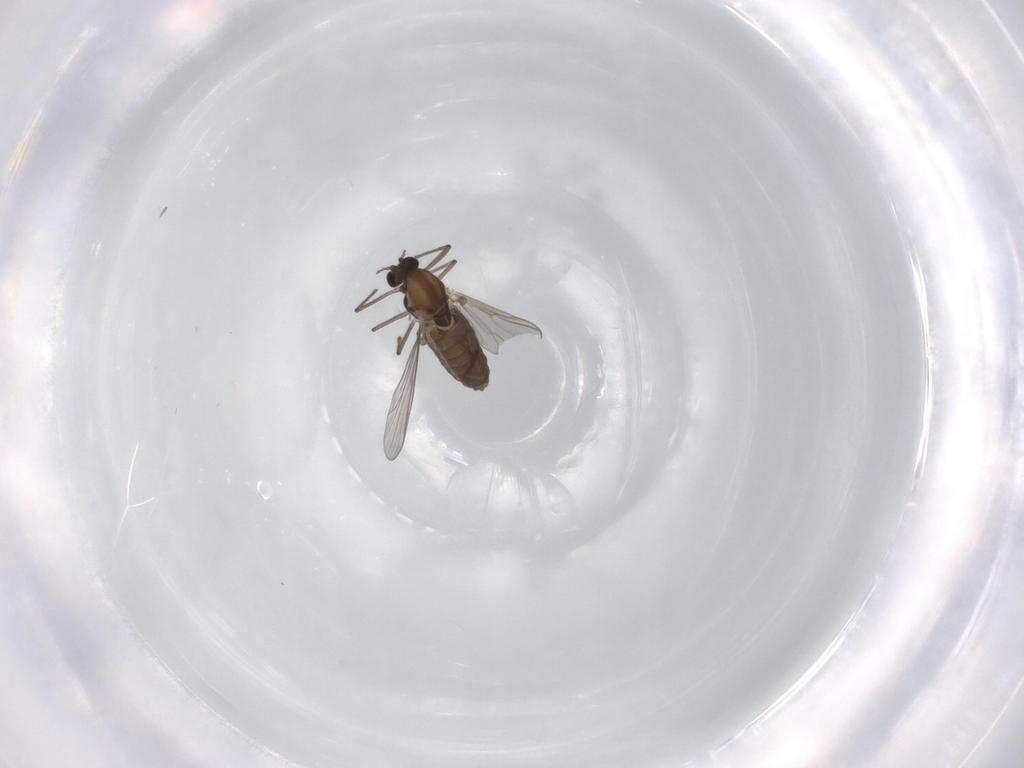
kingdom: Animalia
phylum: Arthropoda
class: Insecta
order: Diptera
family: Chironomidae
